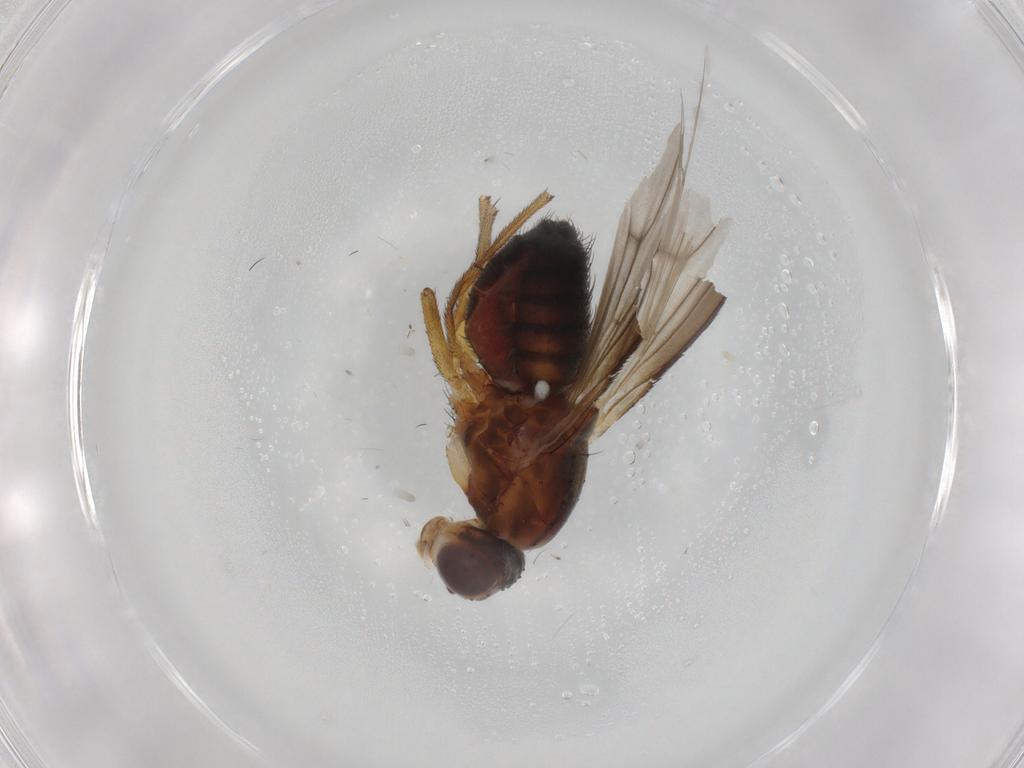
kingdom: Animalia
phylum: Arthropoda
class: Insecta
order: Diptera
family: Heleomyzidae
